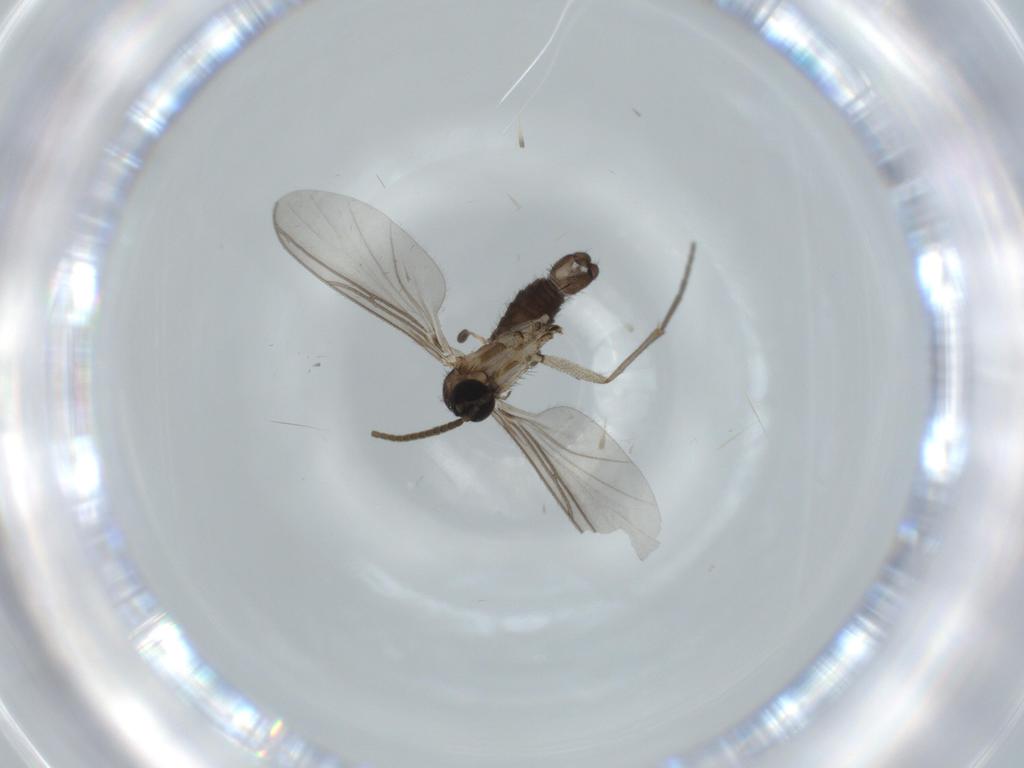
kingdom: Animalia
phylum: Arthropoda
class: Insecta
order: Diptera
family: Sciaridae
